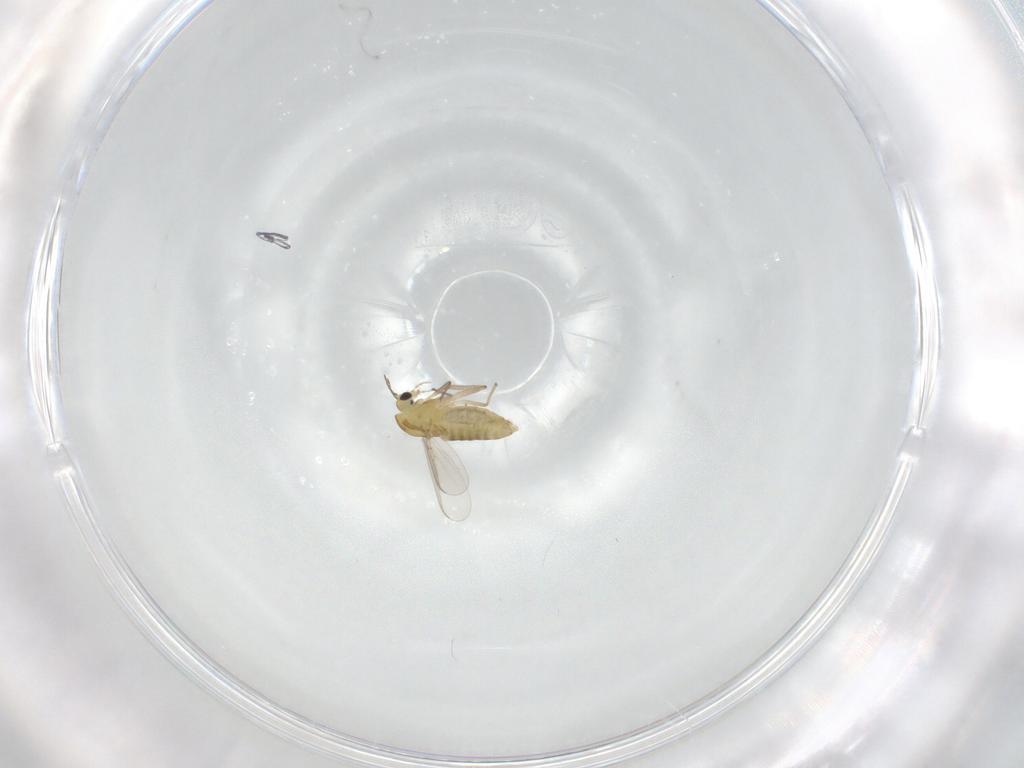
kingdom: Animalia
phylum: Arthropoda
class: Insecta
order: Diptera
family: Chironomidae
